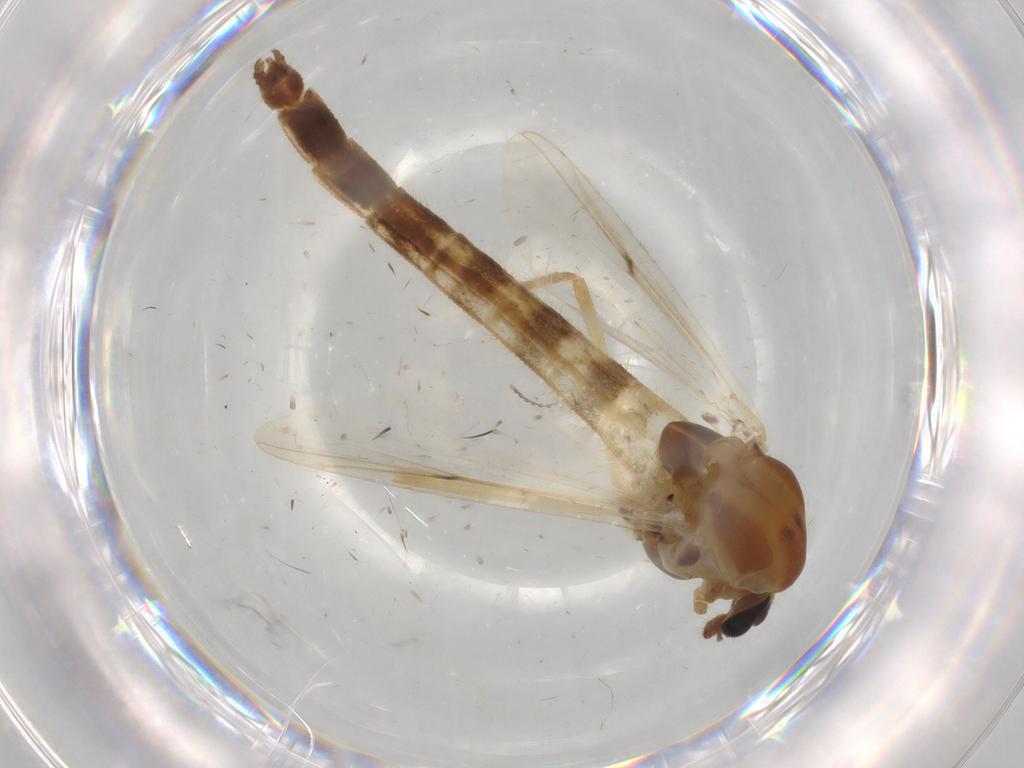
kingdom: Animalia
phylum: Arthropoda
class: Insecta
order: Diptera
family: Chironomidae
